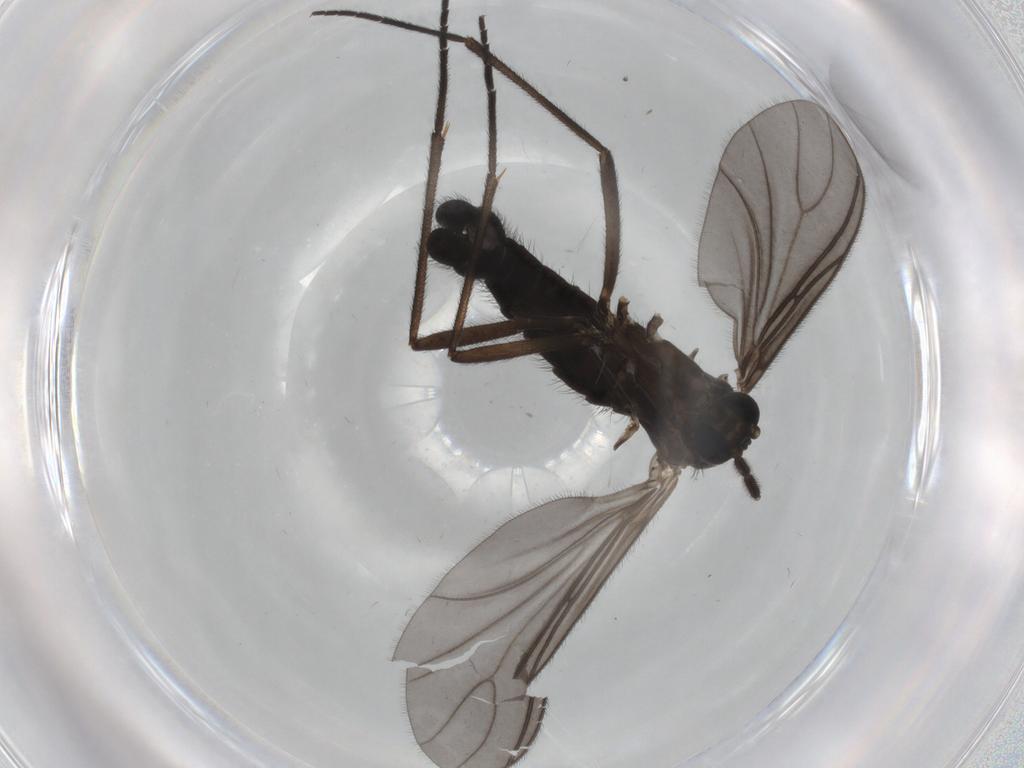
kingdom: Animalia
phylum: Arthropoda
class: Insecta
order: Diptera
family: Sciaridae
